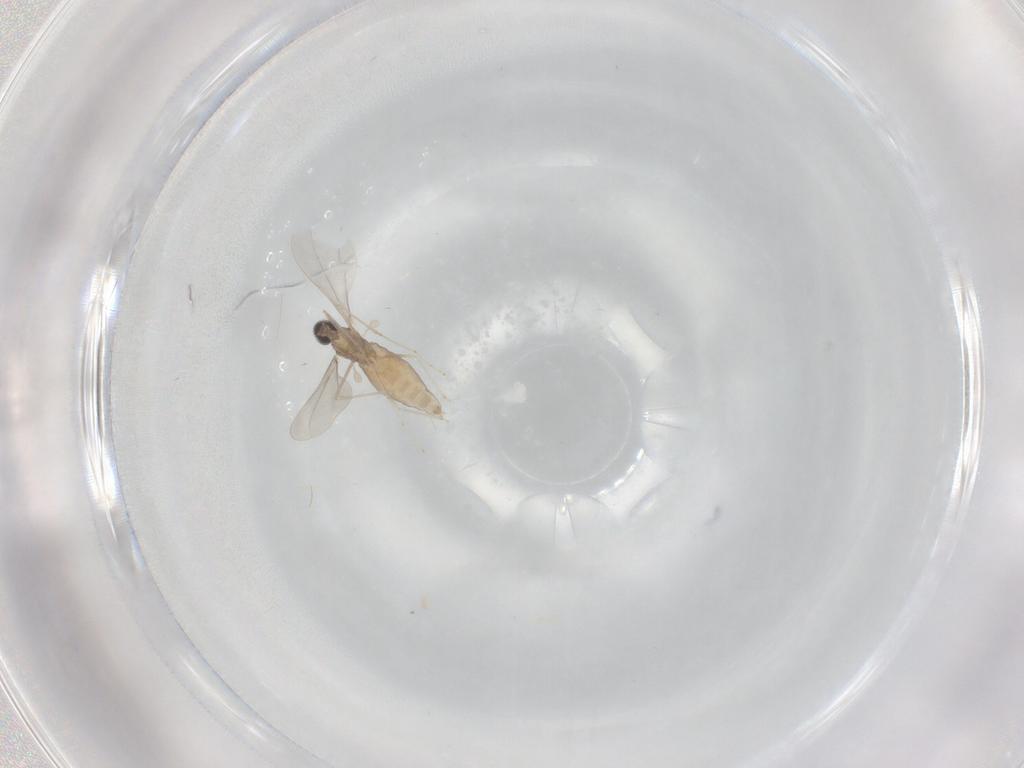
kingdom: Animalia
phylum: Arthropoda
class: Insecta
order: Diptera
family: Cecidomyiidae
